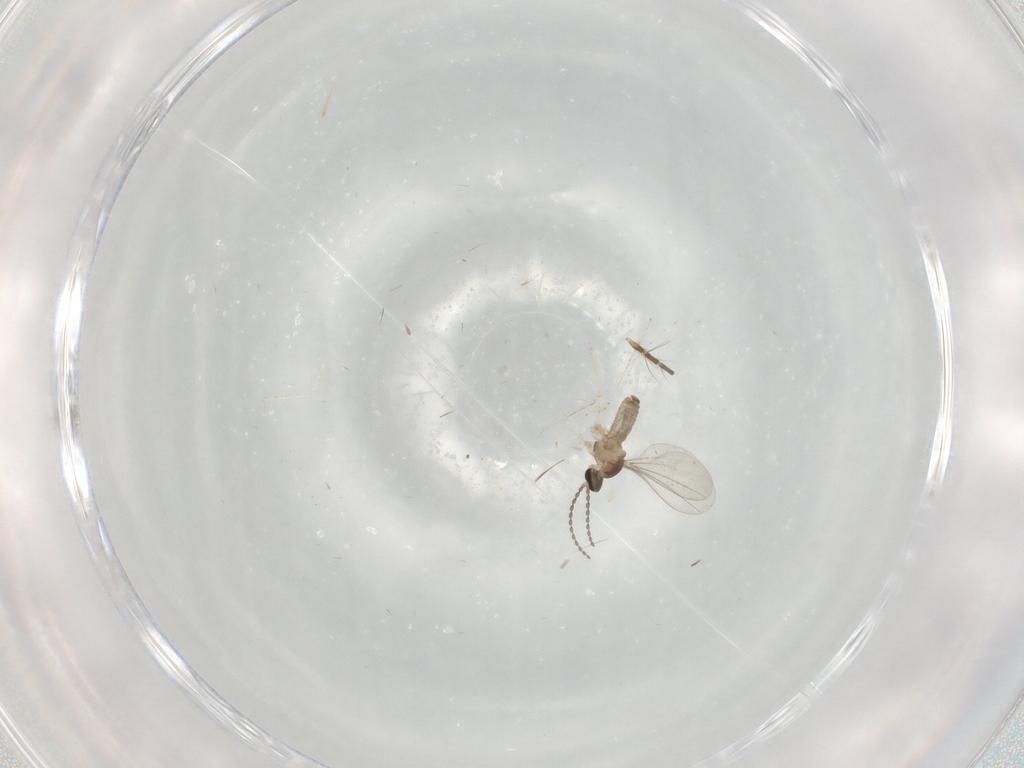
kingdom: Animalia
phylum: Arthropoda
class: Insecta
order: Diptera
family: Cecidomyiidae
